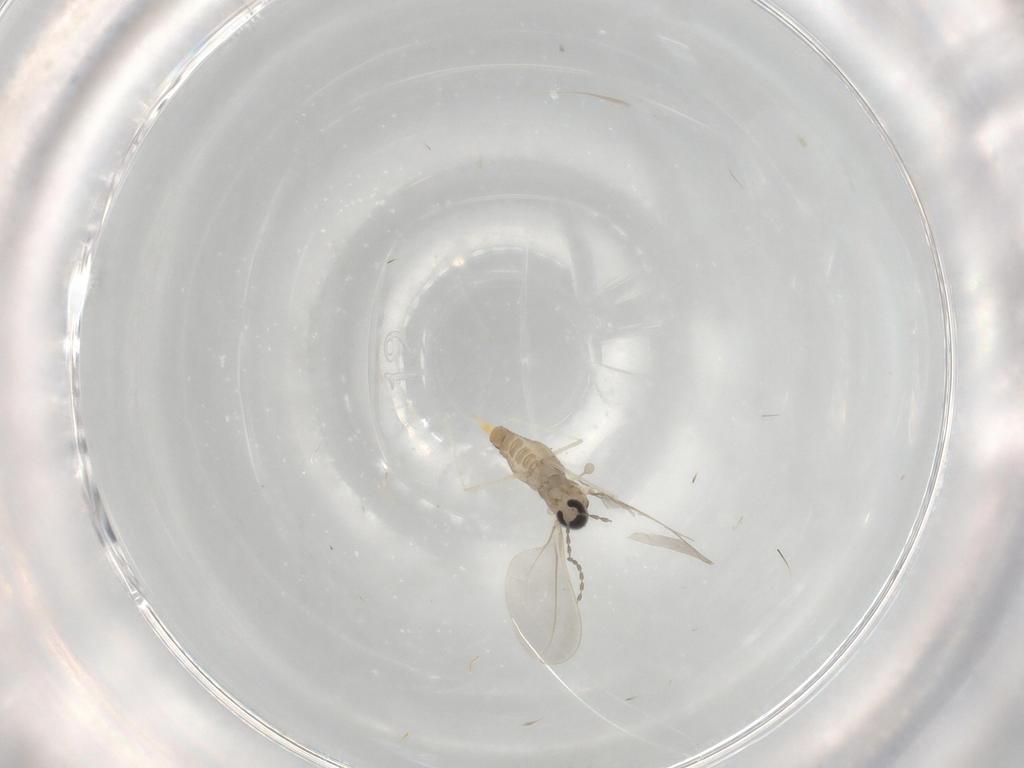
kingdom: Animalia
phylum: Arthropoda
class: Insecta
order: Diptera
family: Cecidomyiidae
